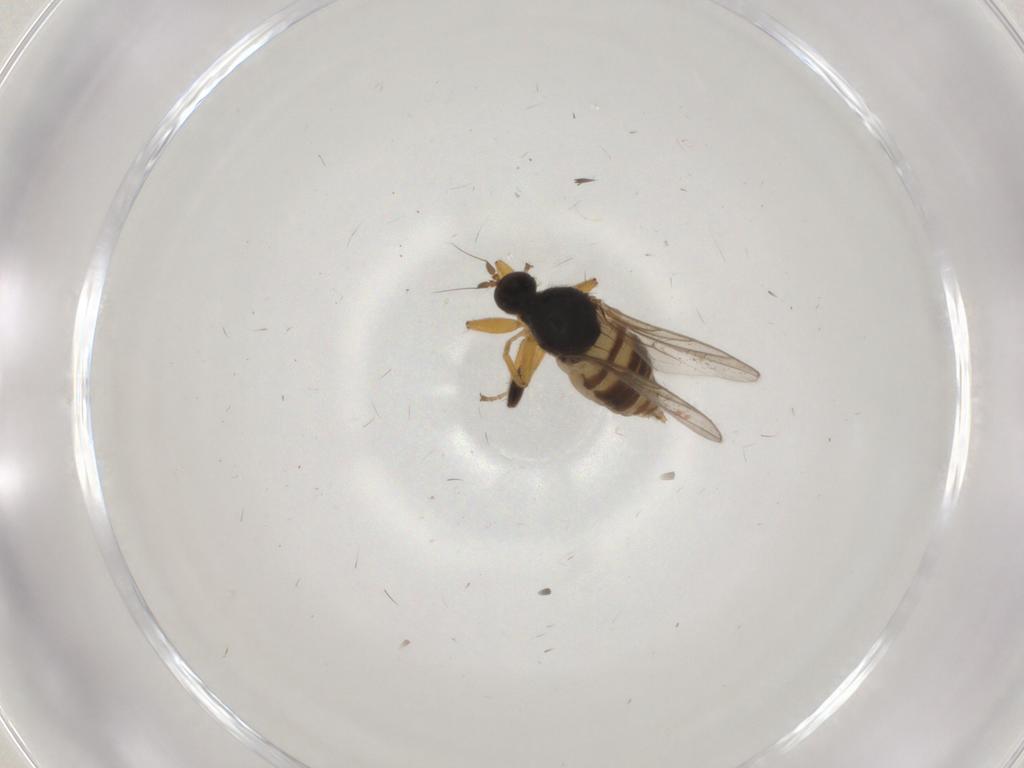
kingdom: Animalia
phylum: Arthropoda
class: Insecta
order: Diptera
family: Hybotidae
